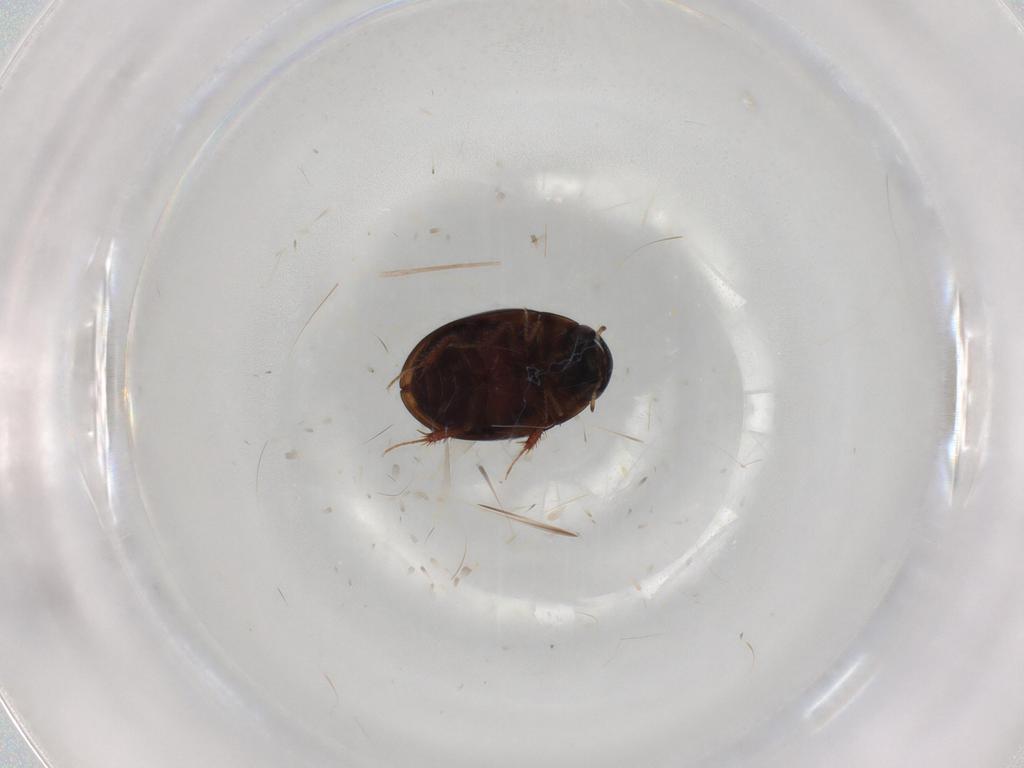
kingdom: Animalia
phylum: Arthropoda
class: Insecta
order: Coleoptera
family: Hydrophilidae
